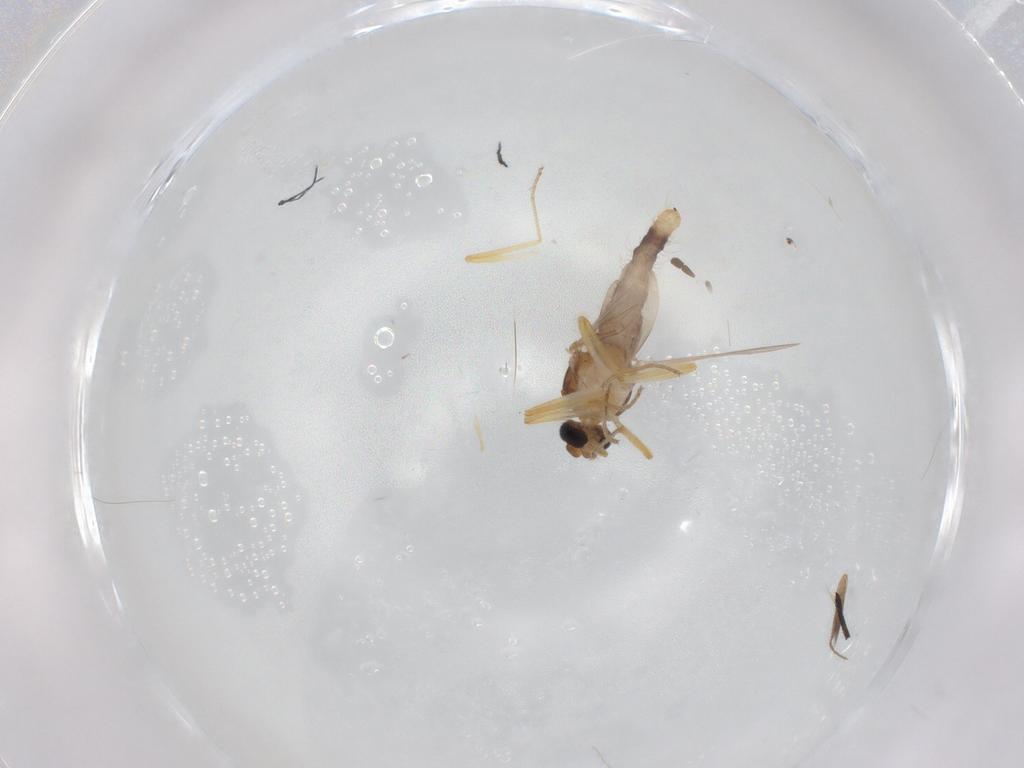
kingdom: Animalia
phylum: Arthropoda
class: Insecta
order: Diptera
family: Ceratopogonidae
